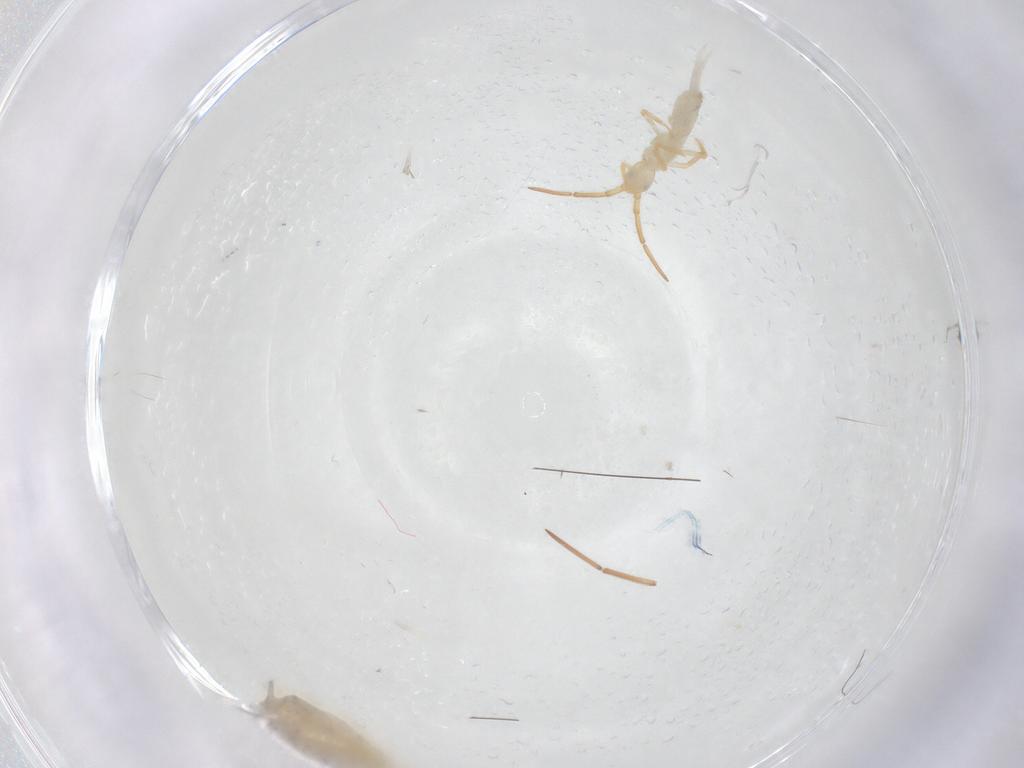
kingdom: Animalia
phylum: Arthropoda
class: Collembola
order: Entomobryomorpha
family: Entomobryidae
